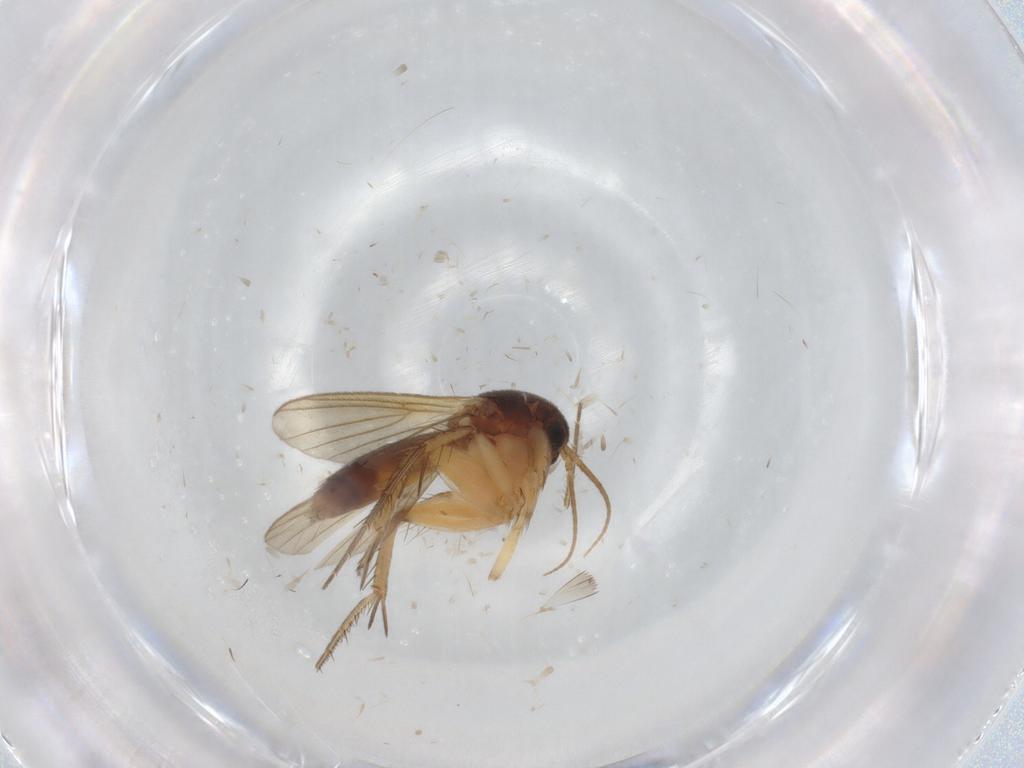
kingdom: Animalia
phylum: Arthropoda
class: Insecta
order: Diptera
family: Mycetophilidae
